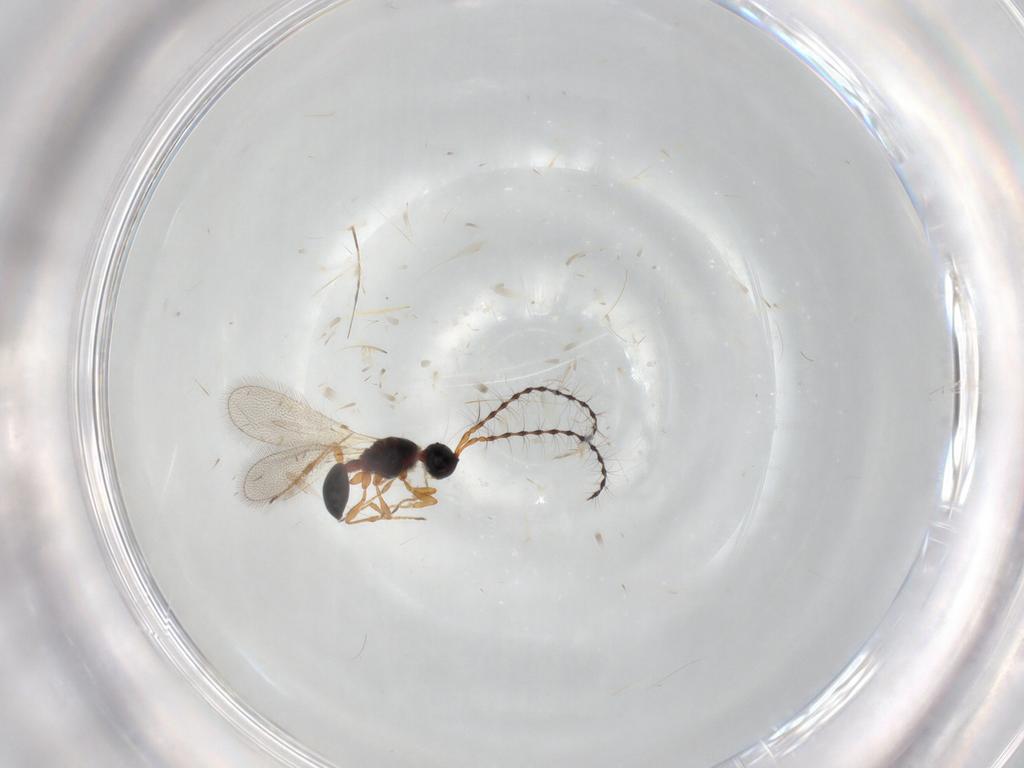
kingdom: Animalia
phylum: Arthropoda
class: Insecta
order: Hymenoptera
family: Formicidae
